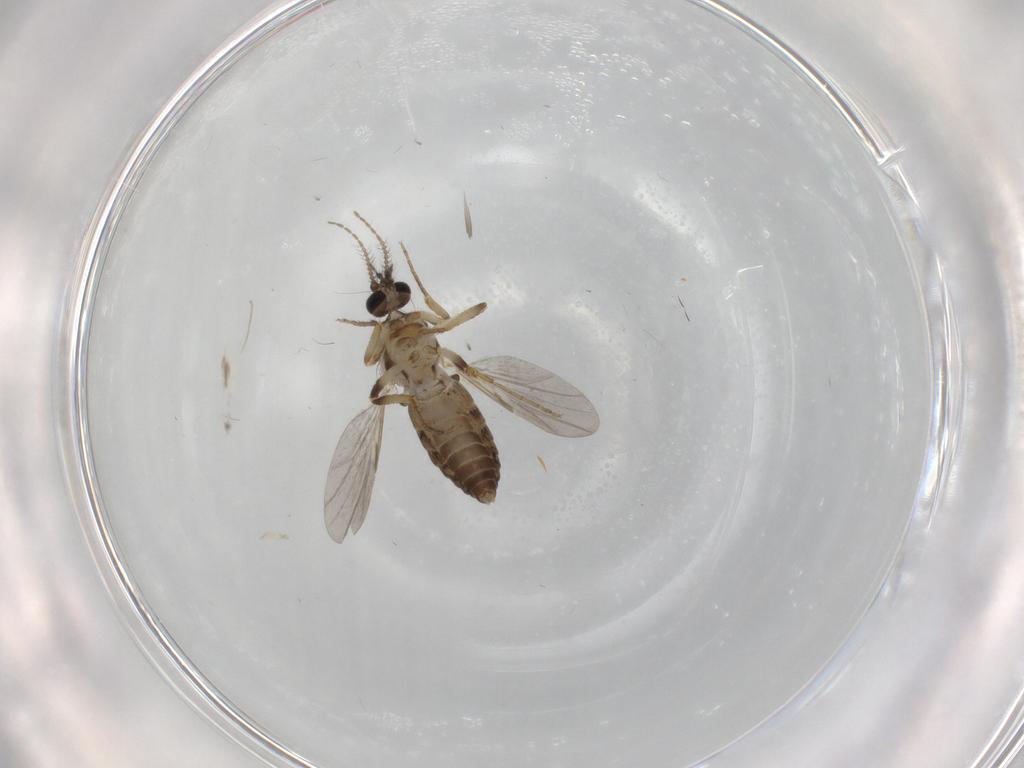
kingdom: Animalia
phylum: Arthropoda
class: Insecta
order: Diptera
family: Ceratopogonidae
